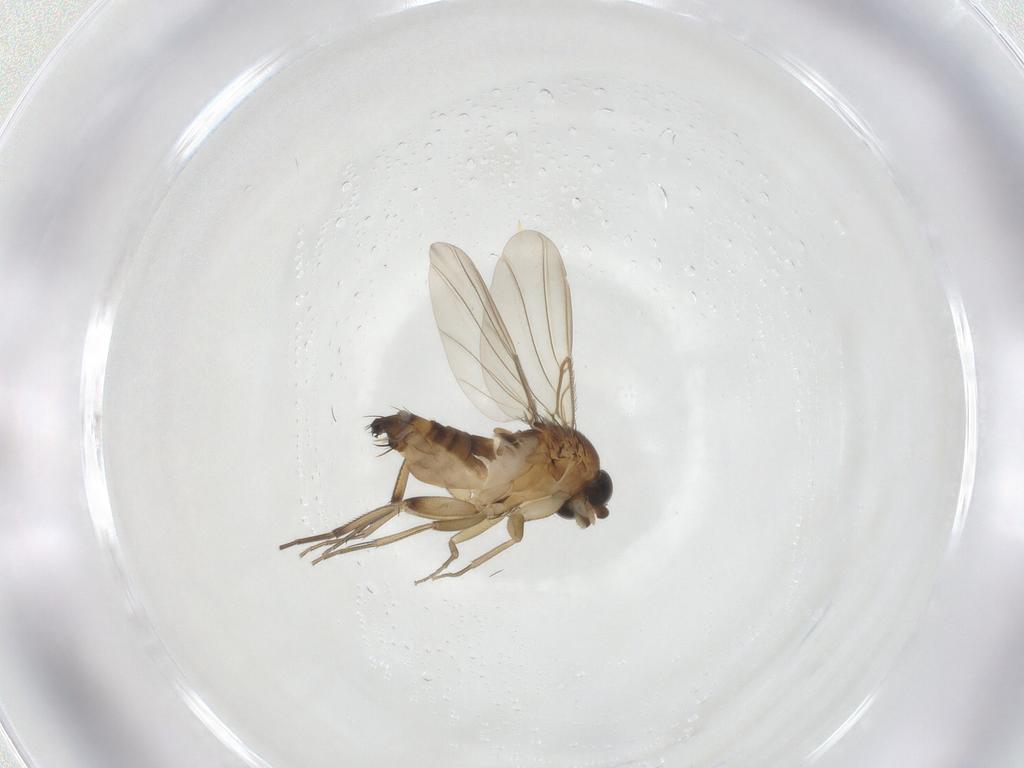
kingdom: Animalia
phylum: Arthropoda
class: Insecta
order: Diptera
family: Phoridae
